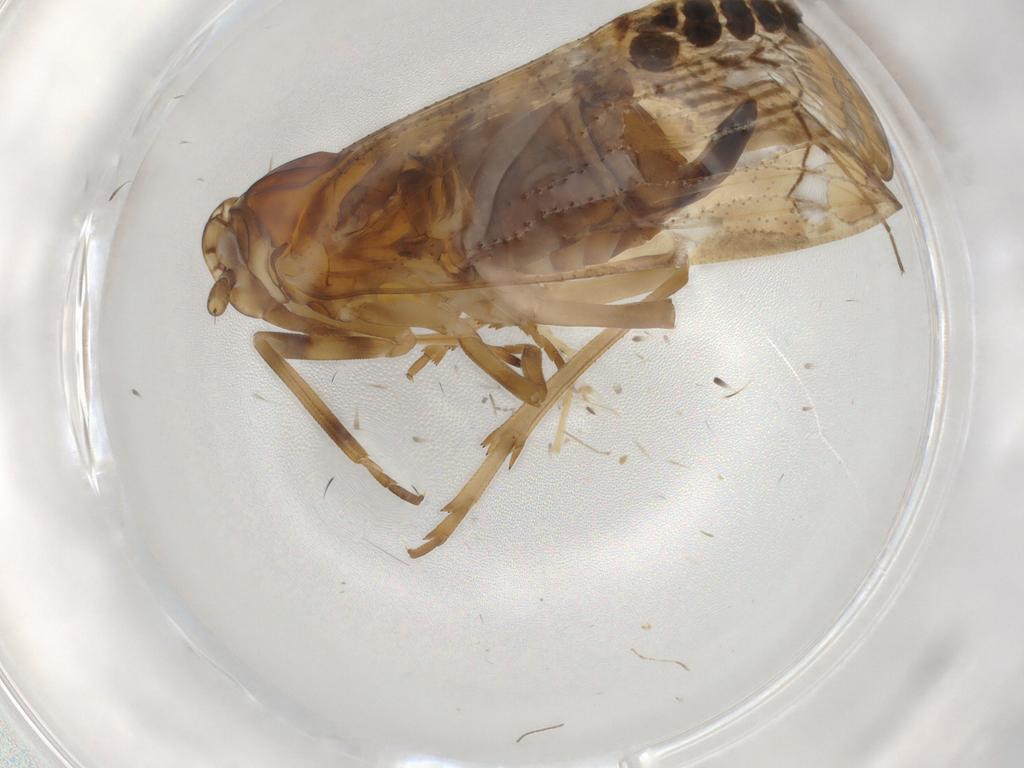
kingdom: Animalia
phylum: Arthropoda
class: Insecta
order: Hemiptera
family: Cixiidae
